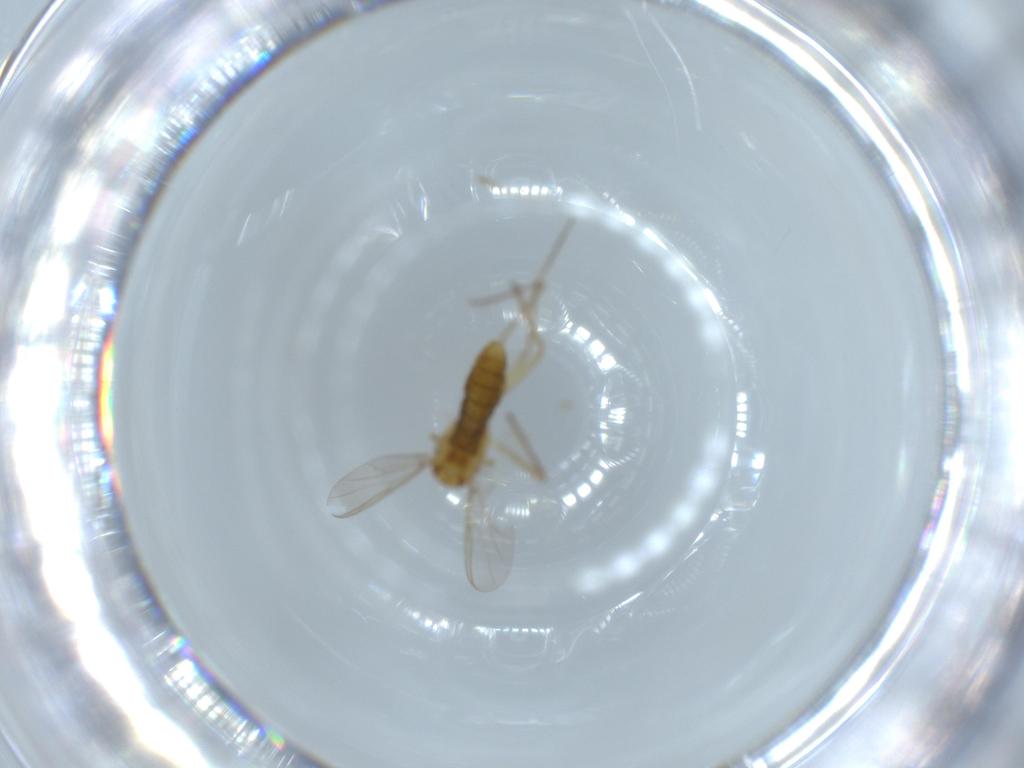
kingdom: Animalia
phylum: Arthropoda
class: Insecta
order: Diptera
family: Chironomidae
